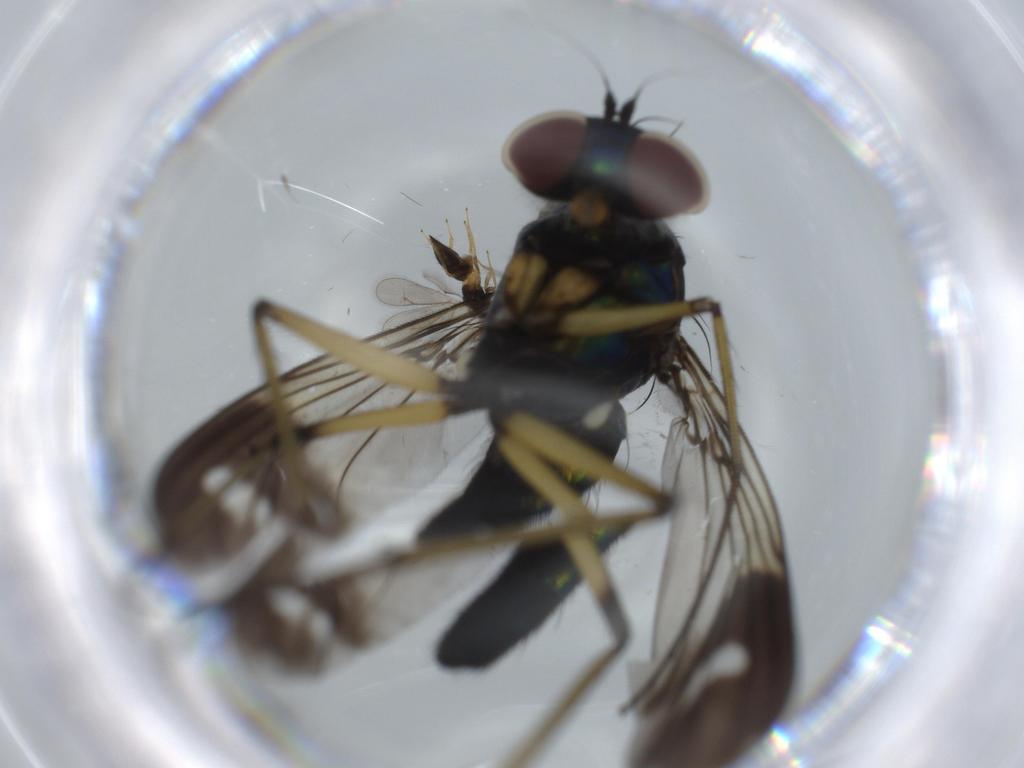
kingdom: Animalia
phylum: Arthropoda
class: Insecta
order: Diptera
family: Dolichopodidae
